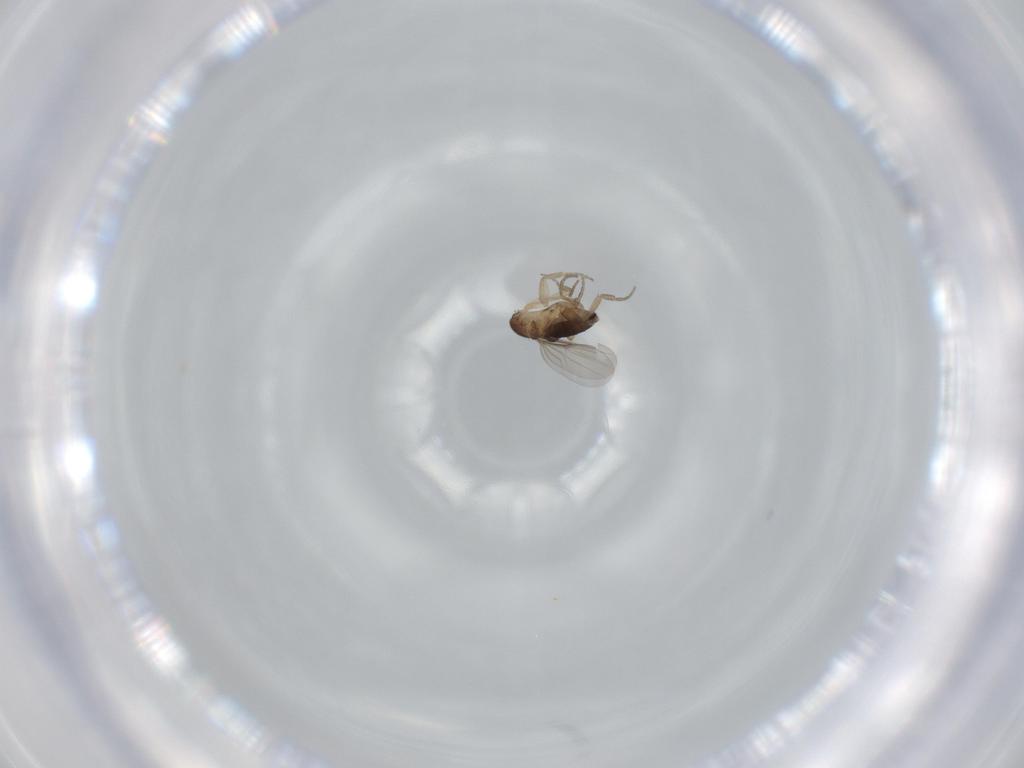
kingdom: Animalia
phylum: Arthropoda
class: Insecta
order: Diptera
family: Phoridae
